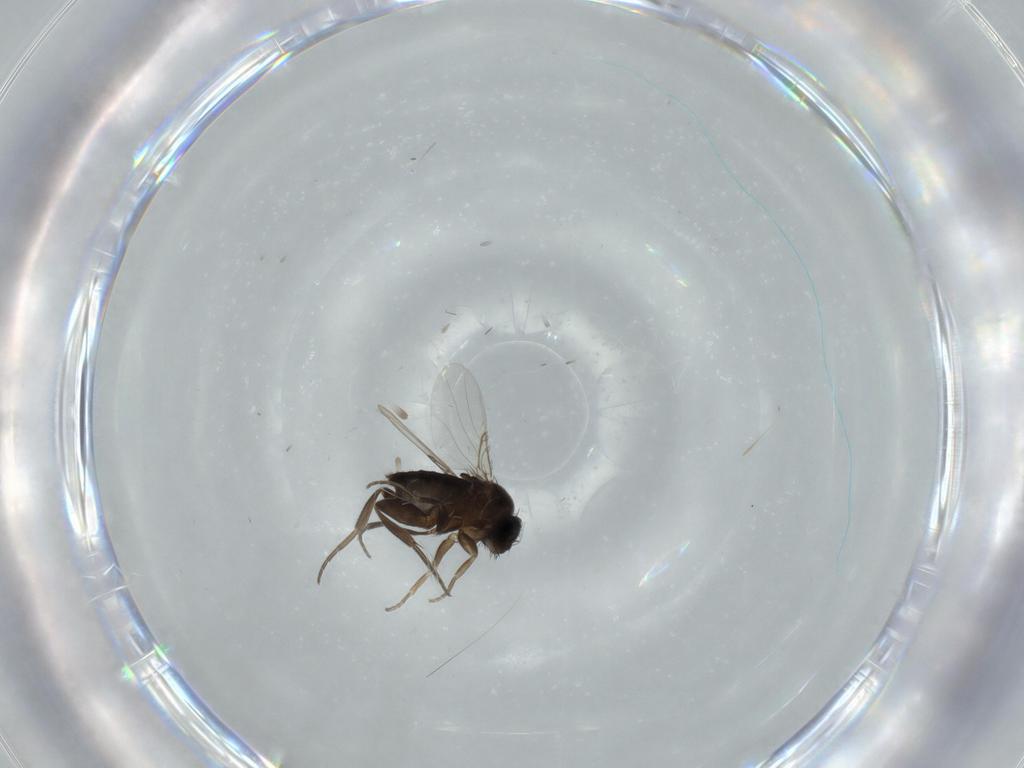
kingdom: Animalia
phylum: Arthropoda
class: Insecta
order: Diptera
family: Phoridae
